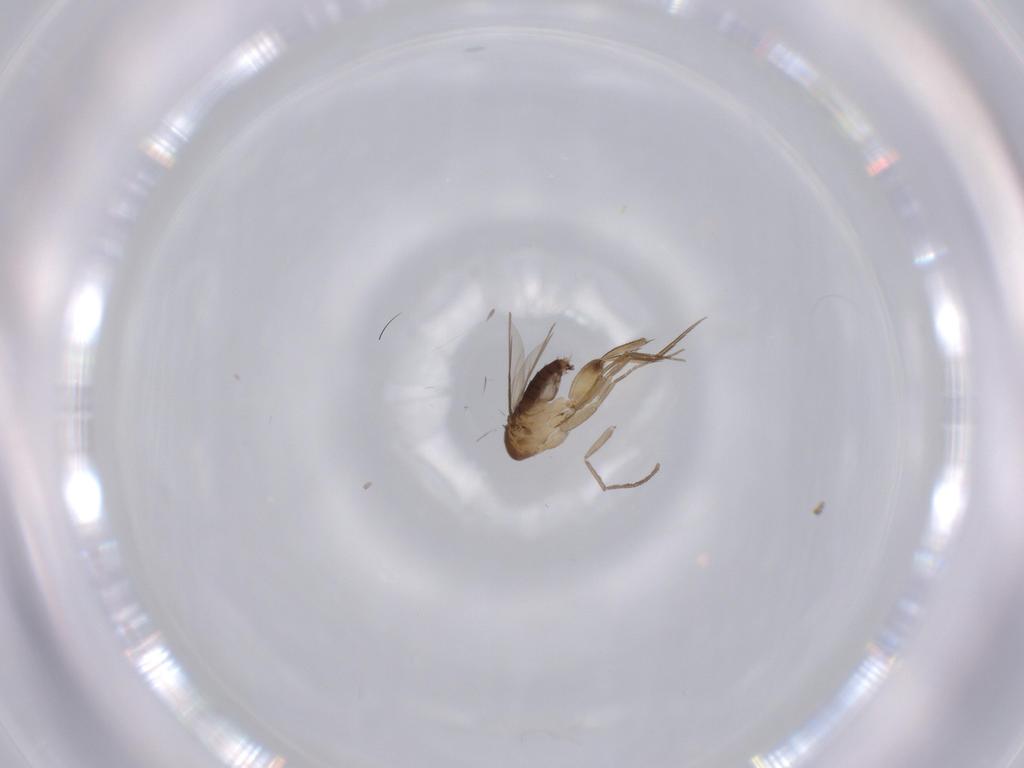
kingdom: Animalia
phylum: Arthropoda
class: Insecta
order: Diptera
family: Phoridae
